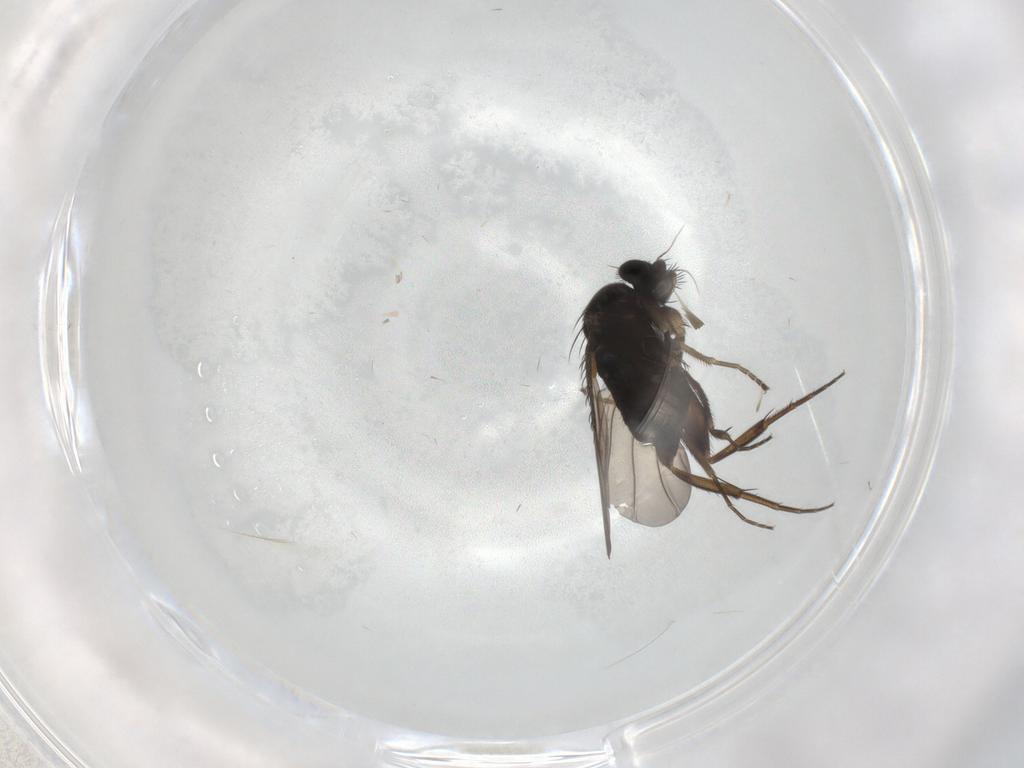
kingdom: Animalia
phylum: Arthropoda
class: Insecta
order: Diptera
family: Phoridae
